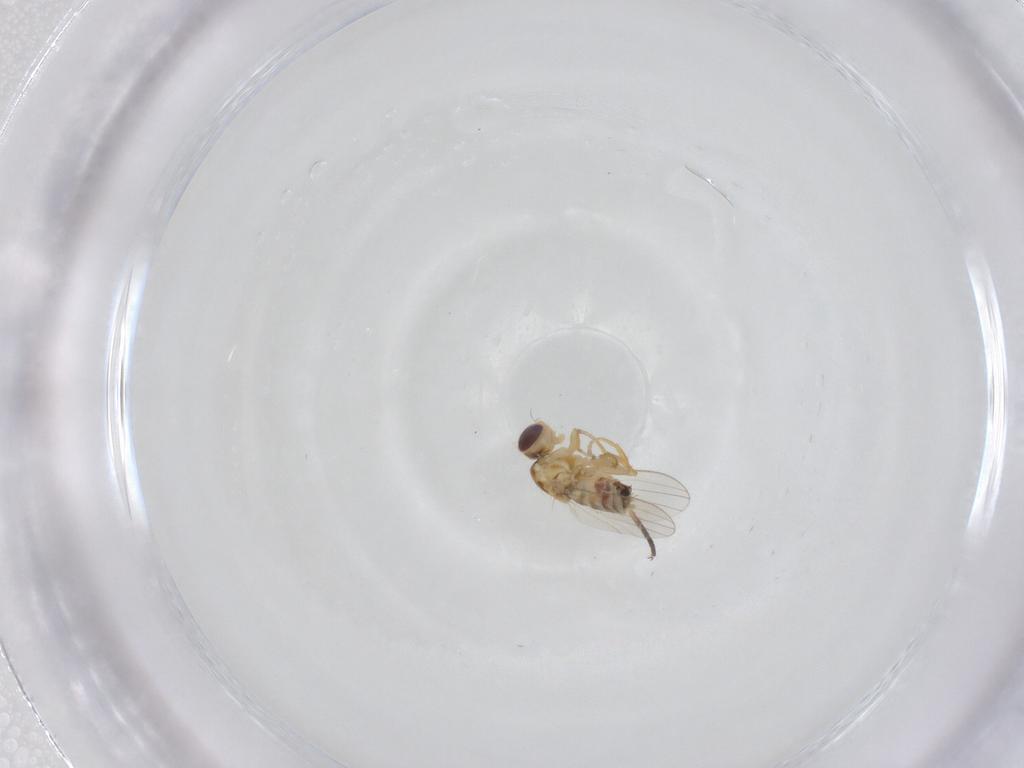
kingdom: Animalia
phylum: Arthropoda
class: Insecta
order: Diptera
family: Chyromyidae
